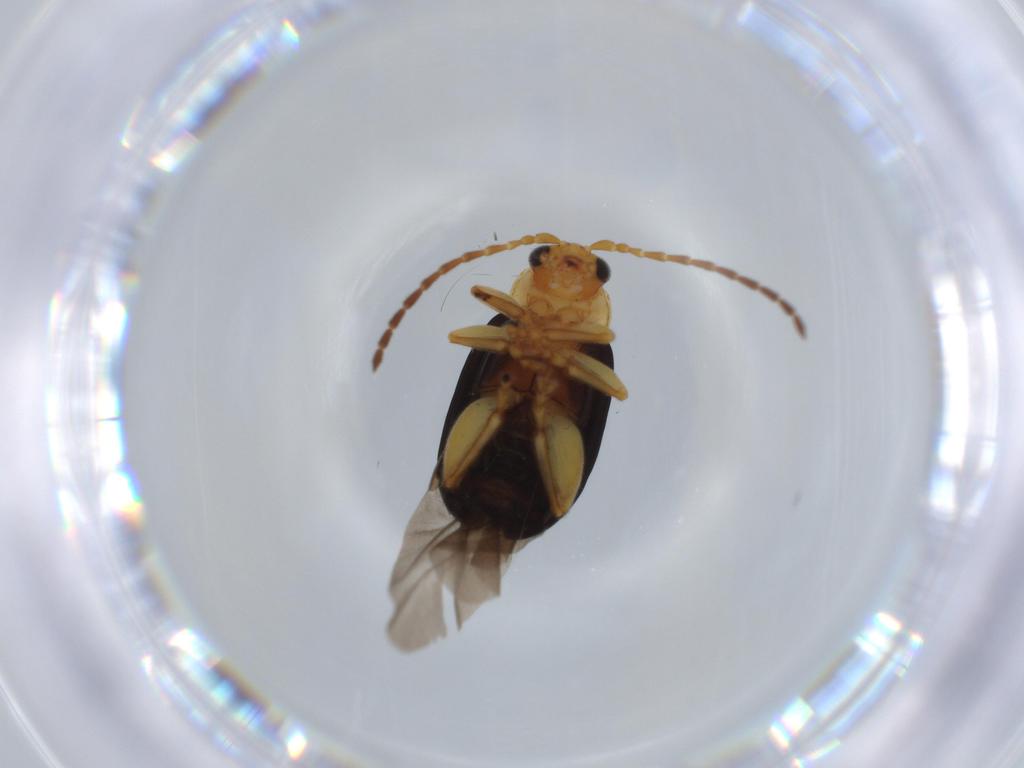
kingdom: Animalia
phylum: Arthropoda
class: Insecta
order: Coleoptera
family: Chrysomelidae
